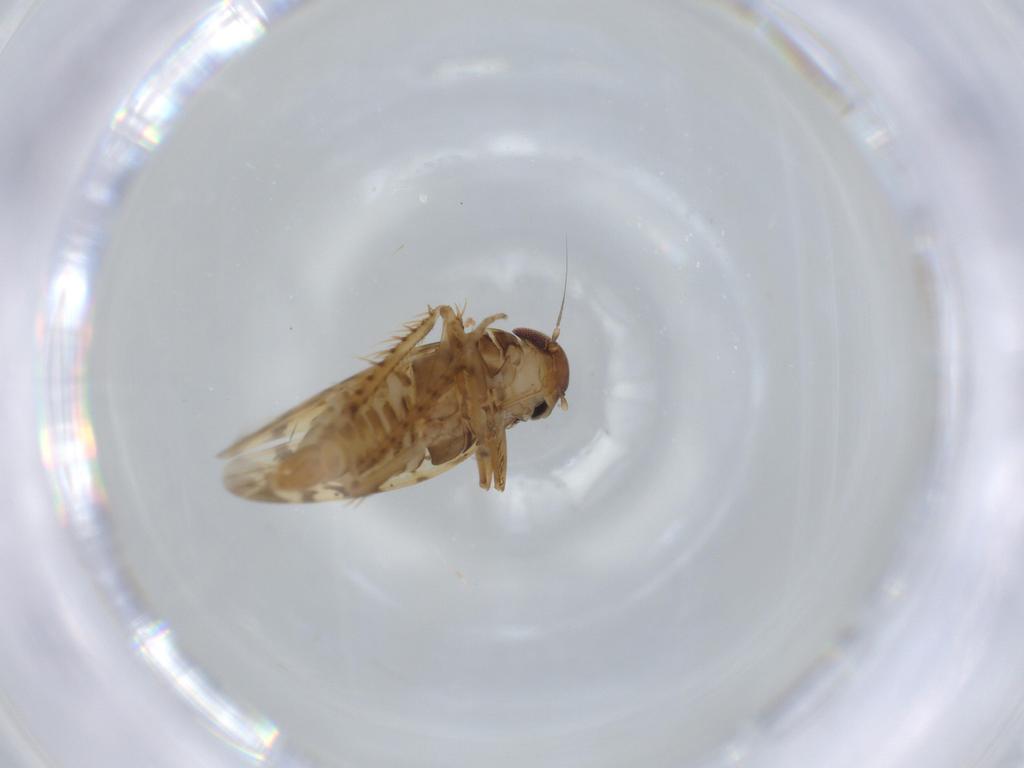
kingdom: Animalia
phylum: Arthropoda
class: Insecta
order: Hemiptera
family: Cicadellidae
